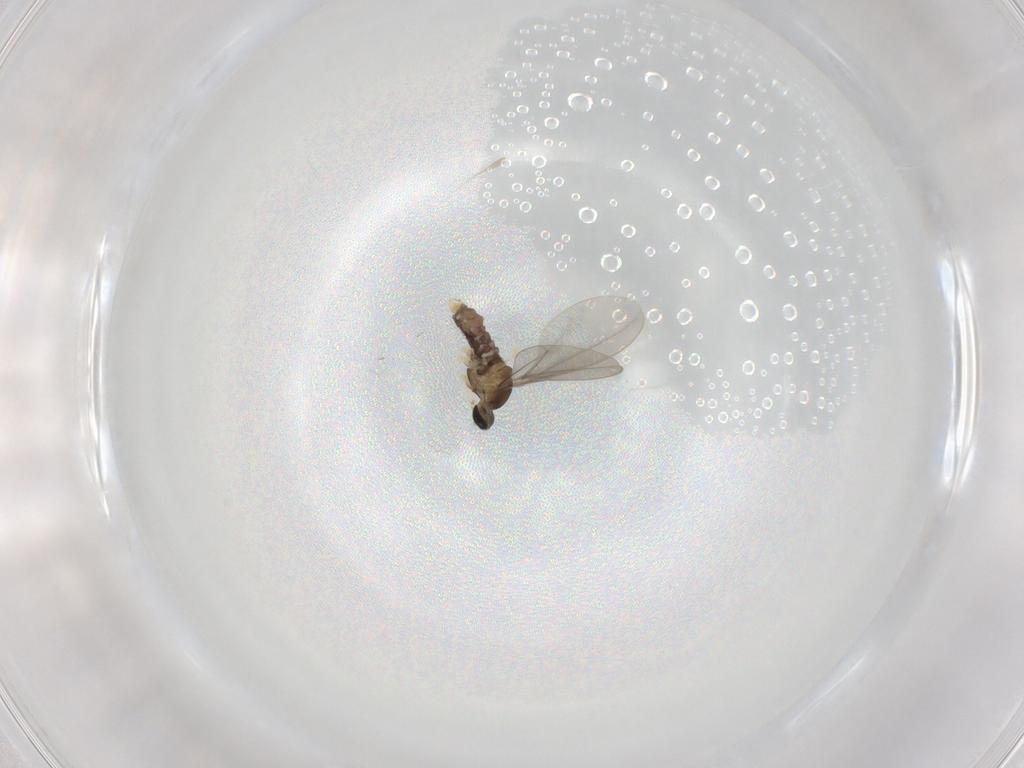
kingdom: Animalia
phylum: Arthropoda
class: Insecta
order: Diptera
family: Cecidomyiidae
